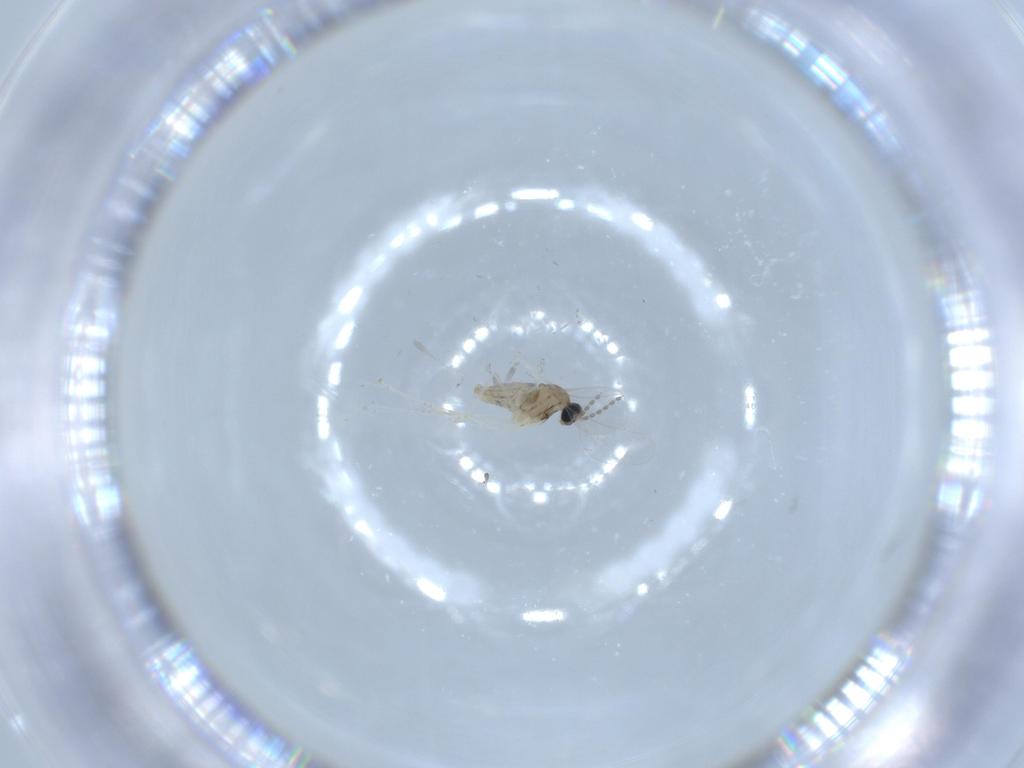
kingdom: Animalia
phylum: Arthropoda
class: Insecta
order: Diptera
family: Cecidomyiidae
